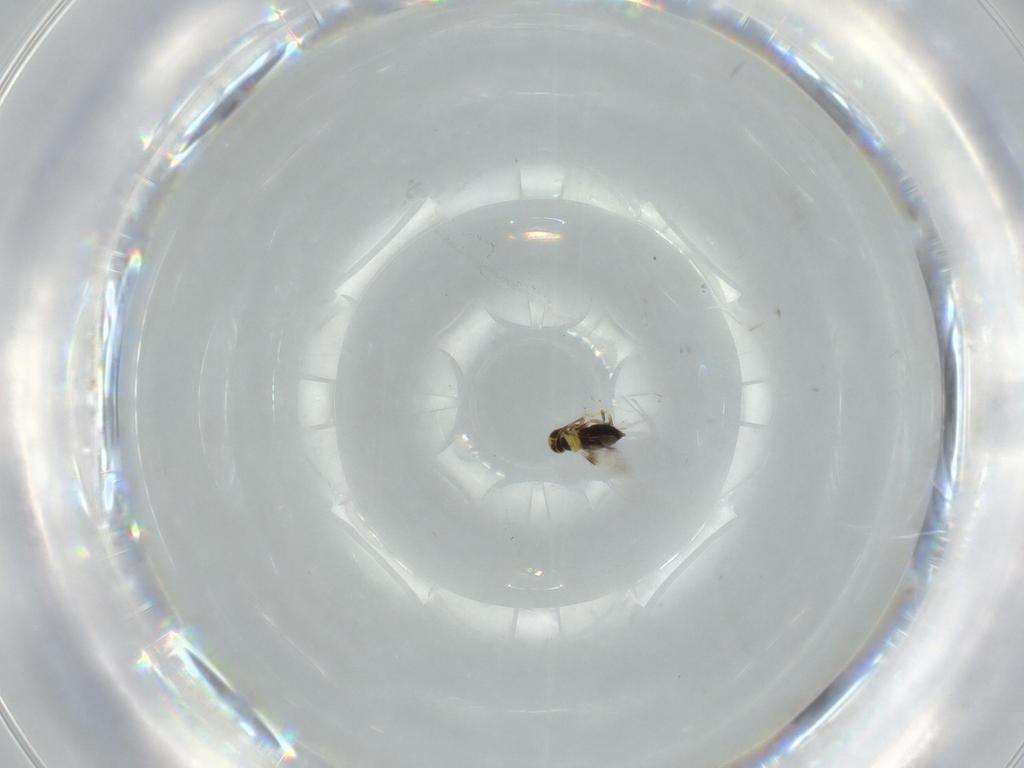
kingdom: Animalia
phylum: Arthropoda
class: Insecta
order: Hymenoptera
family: Signiphoridae
